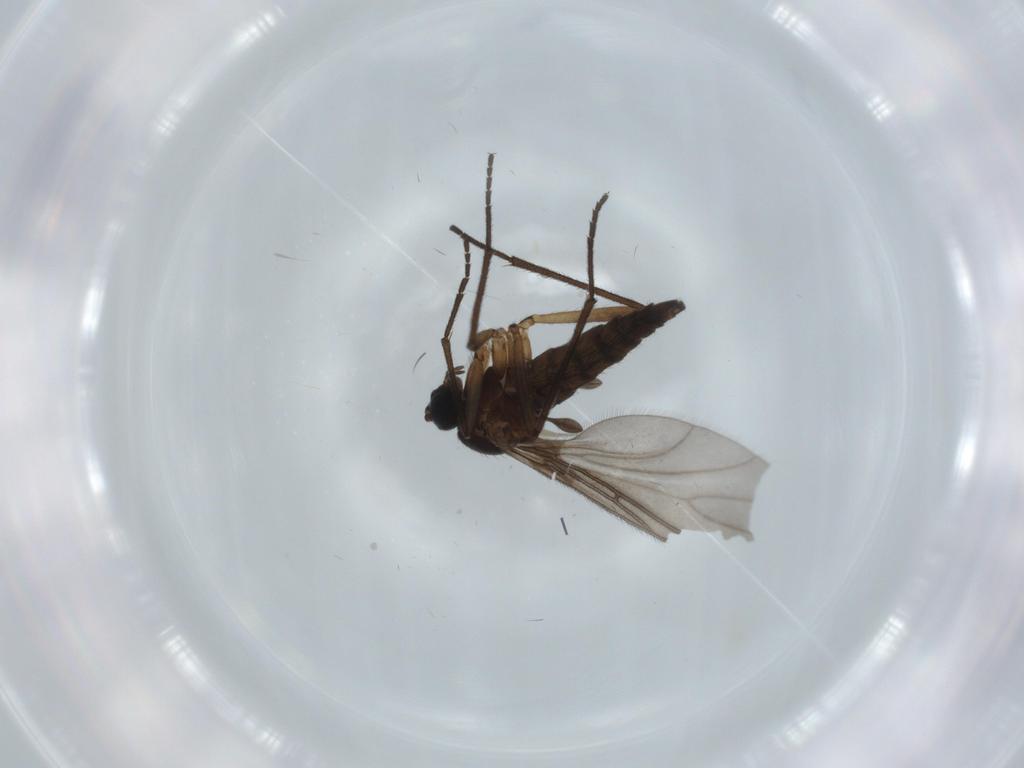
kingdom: Animalia
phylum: Arthropoda
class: Insecta
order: Diptera
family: Sciaridae
